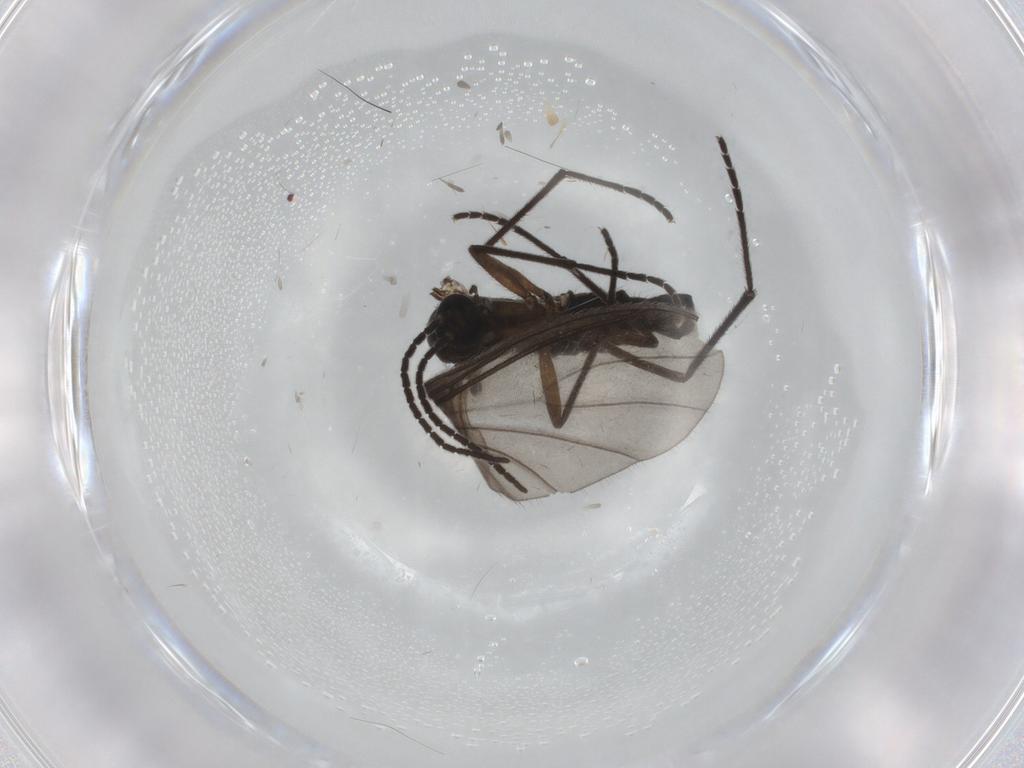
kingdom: Animalia
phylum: Arthropoda
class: Insecta
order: Diptera
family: Sciaridae
